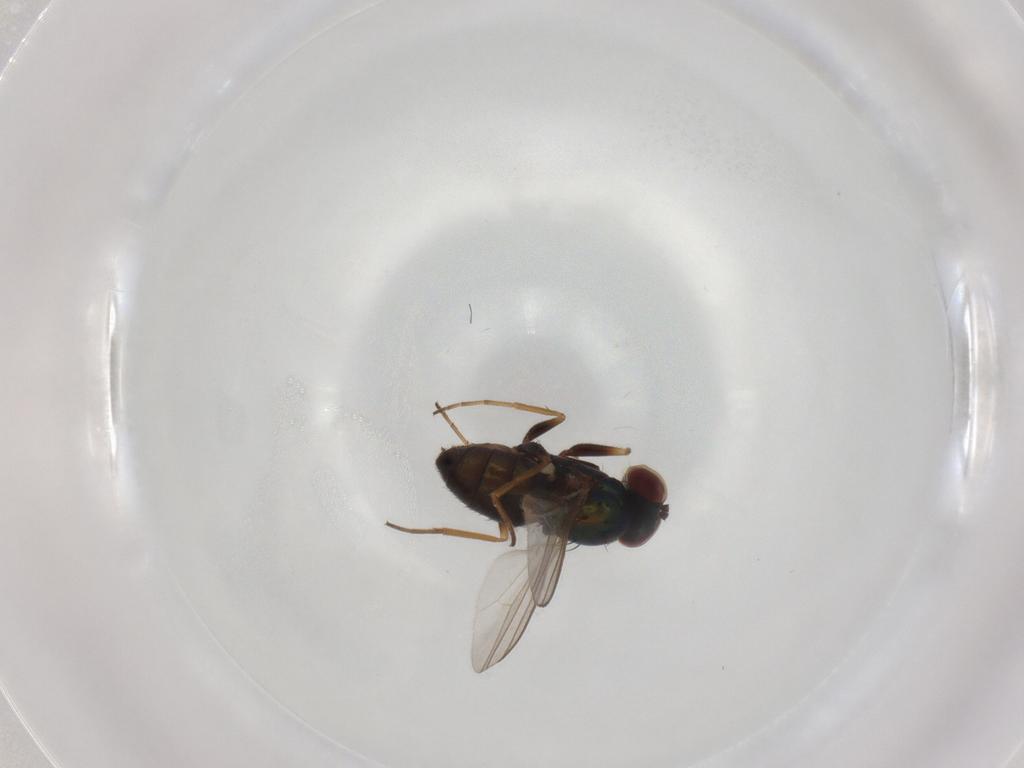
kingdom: Animalia
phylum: Arthropoda
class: Insecta
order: Diptera
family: Dolichopodidae
